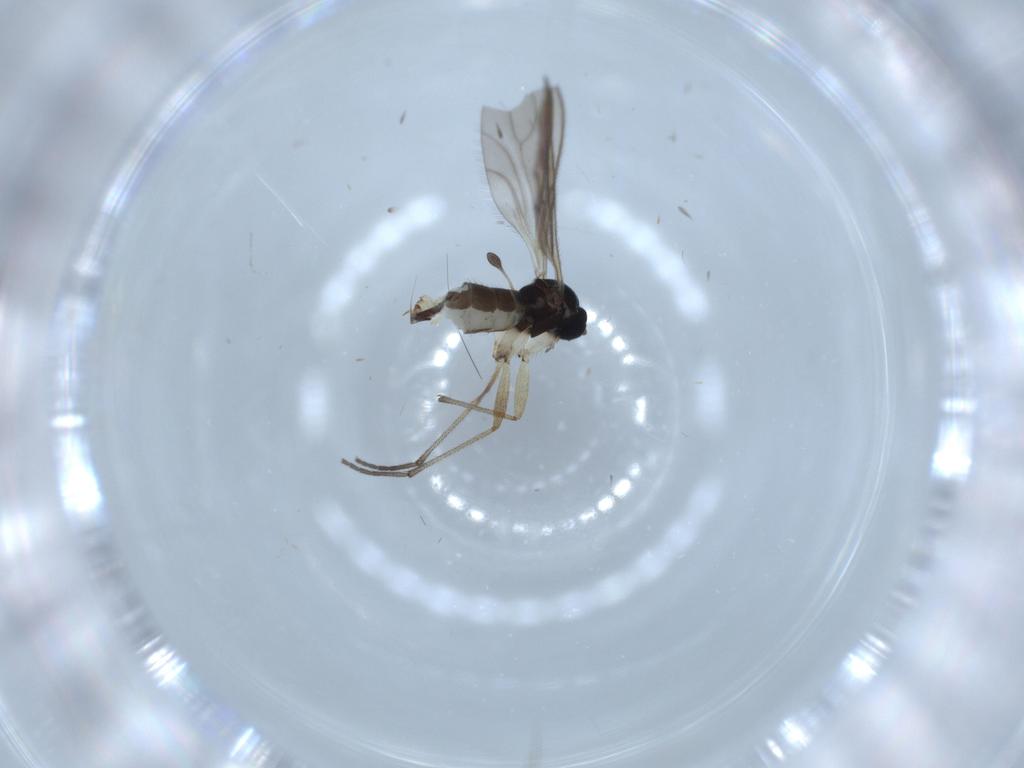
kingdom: Animalia
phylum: Arthropoda
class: Insecta
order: Diptera
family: Sciaridae
